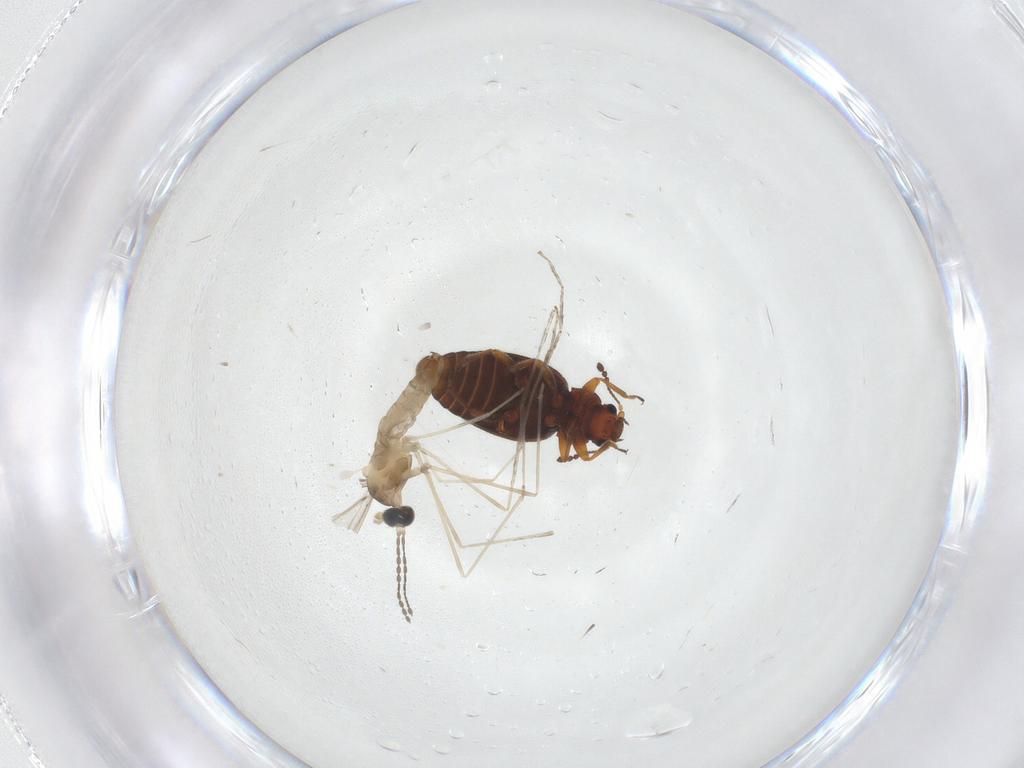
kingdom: Animalia
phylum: Arthropoda
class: Insecta
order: Diptera
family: Cecidomyiidae
